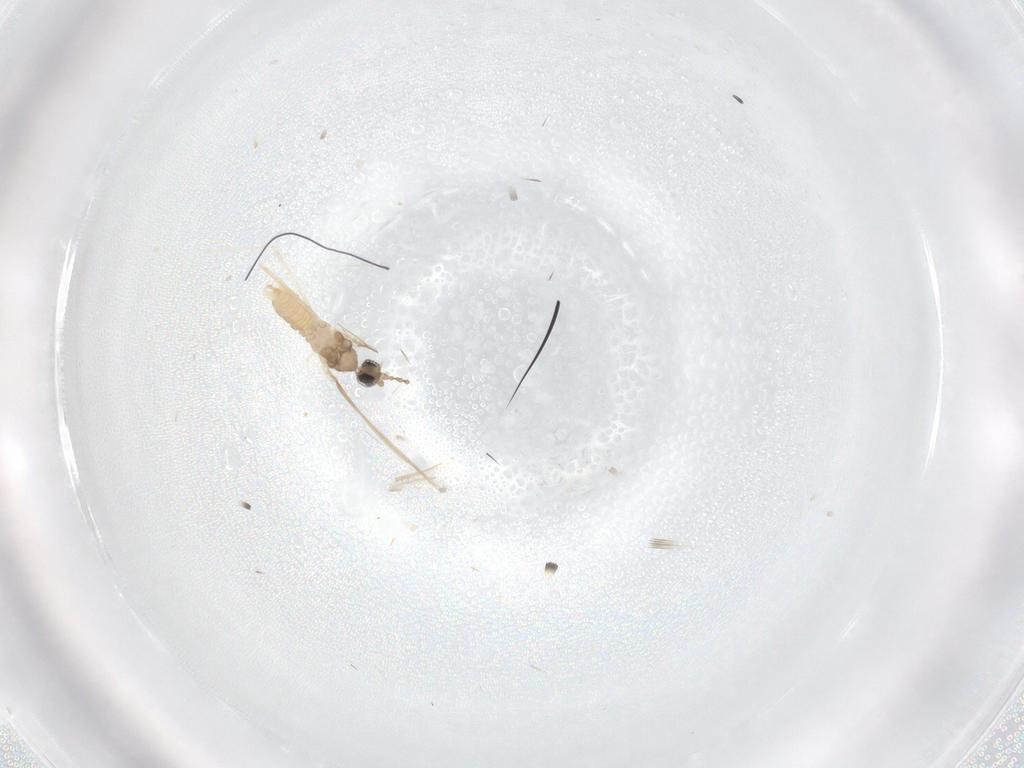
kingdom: Animalia
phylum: Arthropoda
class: Insecta
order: Diptera
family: Cecidomyiidae
